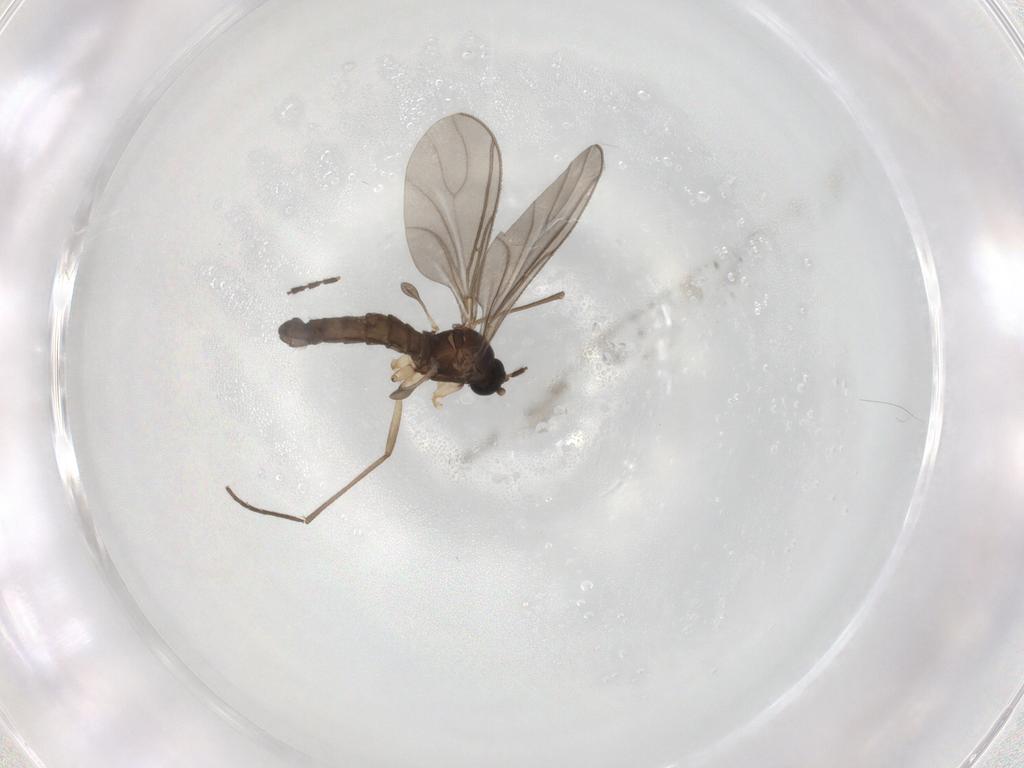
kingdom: Animalia
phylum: Arthropoda
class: Insecta
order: Diptera
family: Sciaridae
